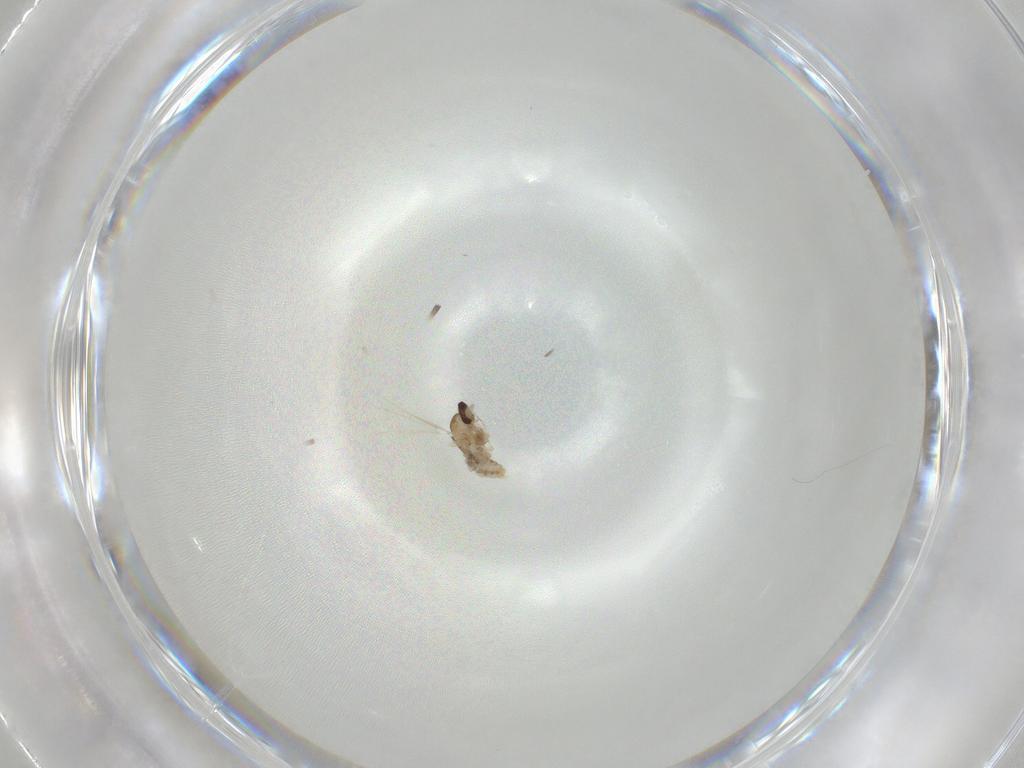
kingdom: Animalia
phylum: Arthropoda
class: Insecta
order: Diptera
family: Cecidomyiidae
